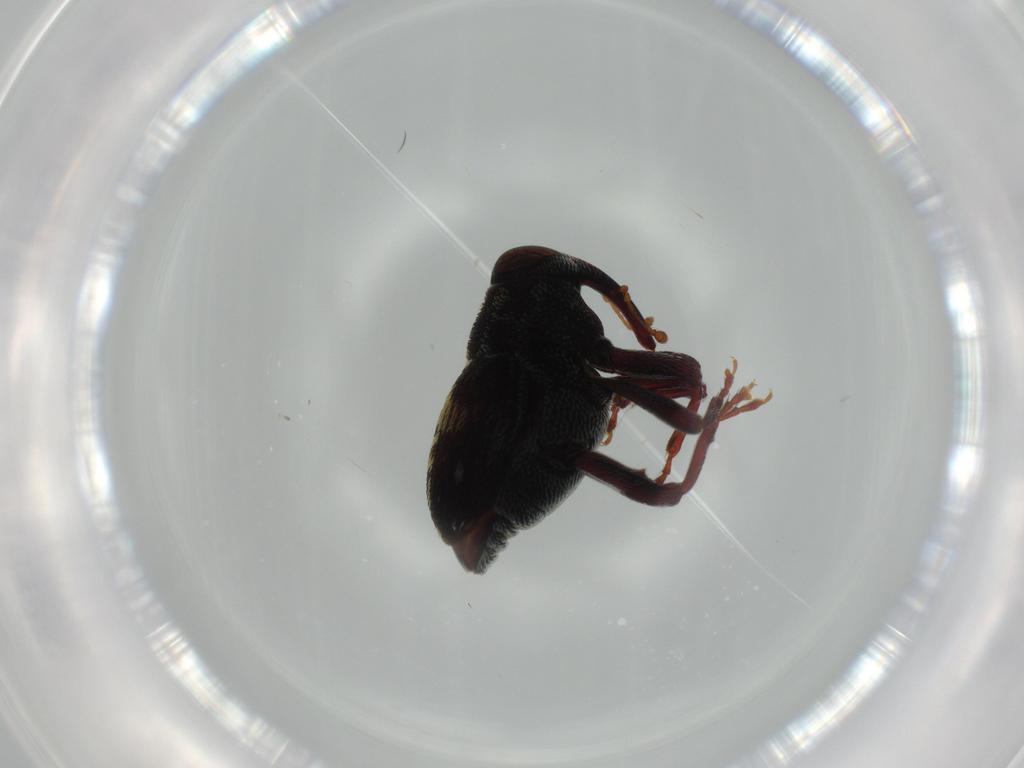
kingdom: Animalia
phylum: Arthropoda
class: Insecta
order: Coleoptera
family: Curculionidae
